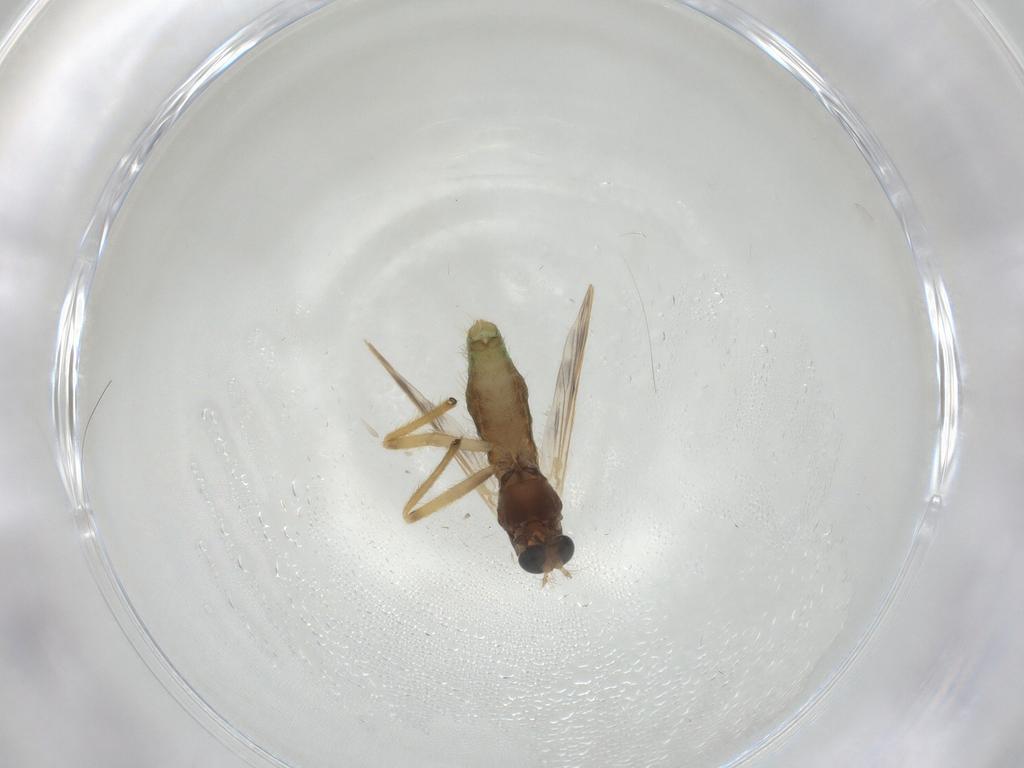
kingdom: Animalia
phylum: Arthropoda
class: Insecta
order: Diptera
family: Chironomidae
